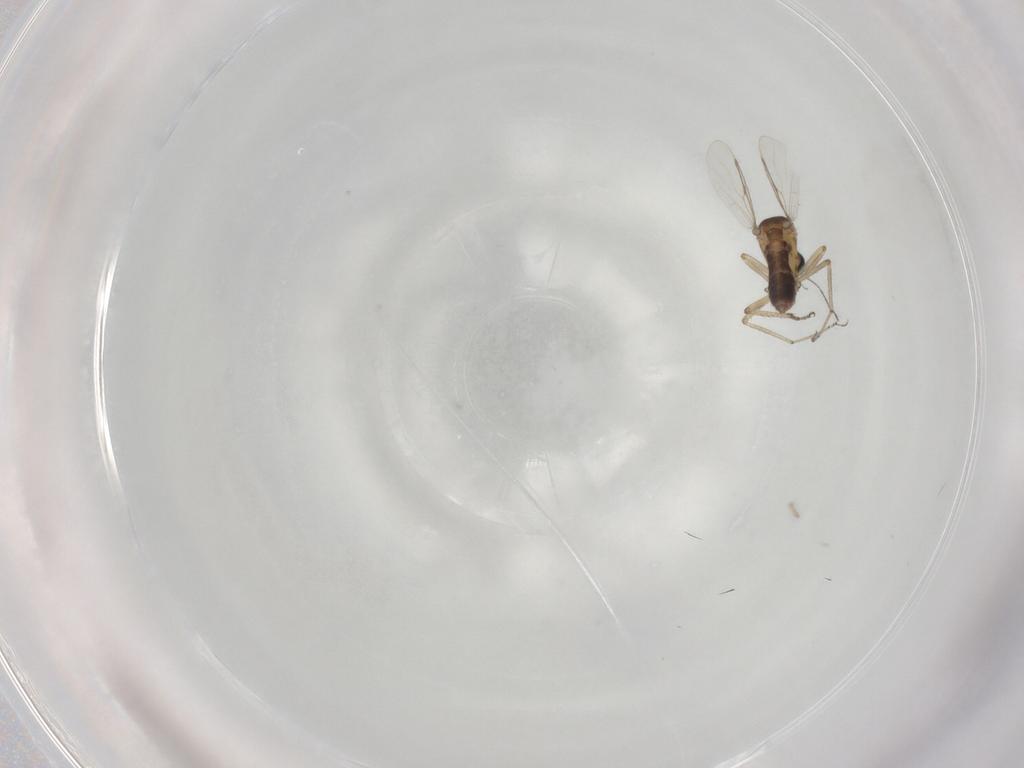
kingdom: Animalia
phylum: Arthropoda
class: Insecta
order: Diptera
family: Ceratopogonidae
